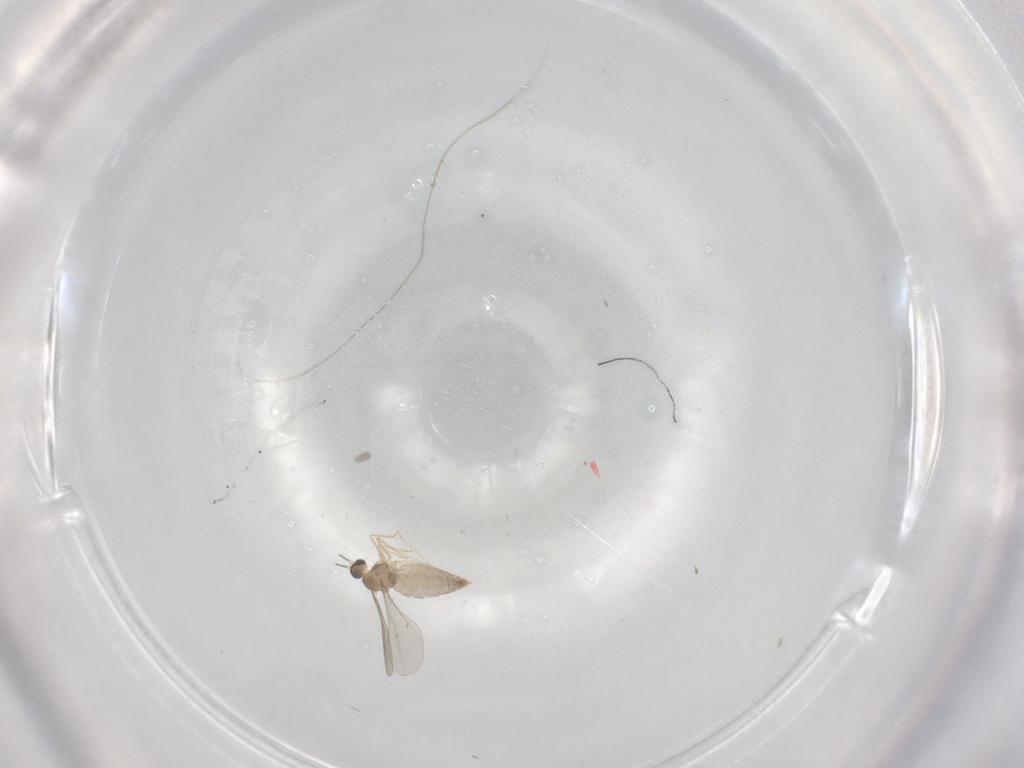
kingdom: Animalia
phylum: Arthropoda
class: Insecta
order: Diptera
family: Cecidomyiidae
